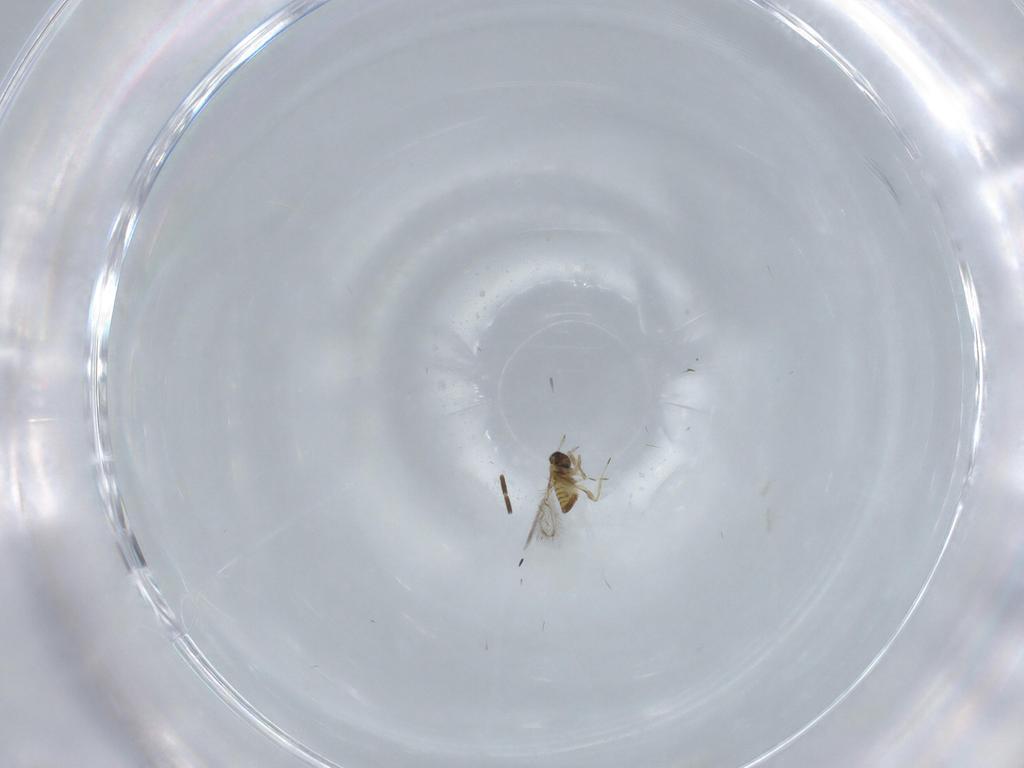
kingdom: Animalia
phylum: Arthropoda
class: Insecta
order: Hymenoptera
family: Trichogrammatidae
